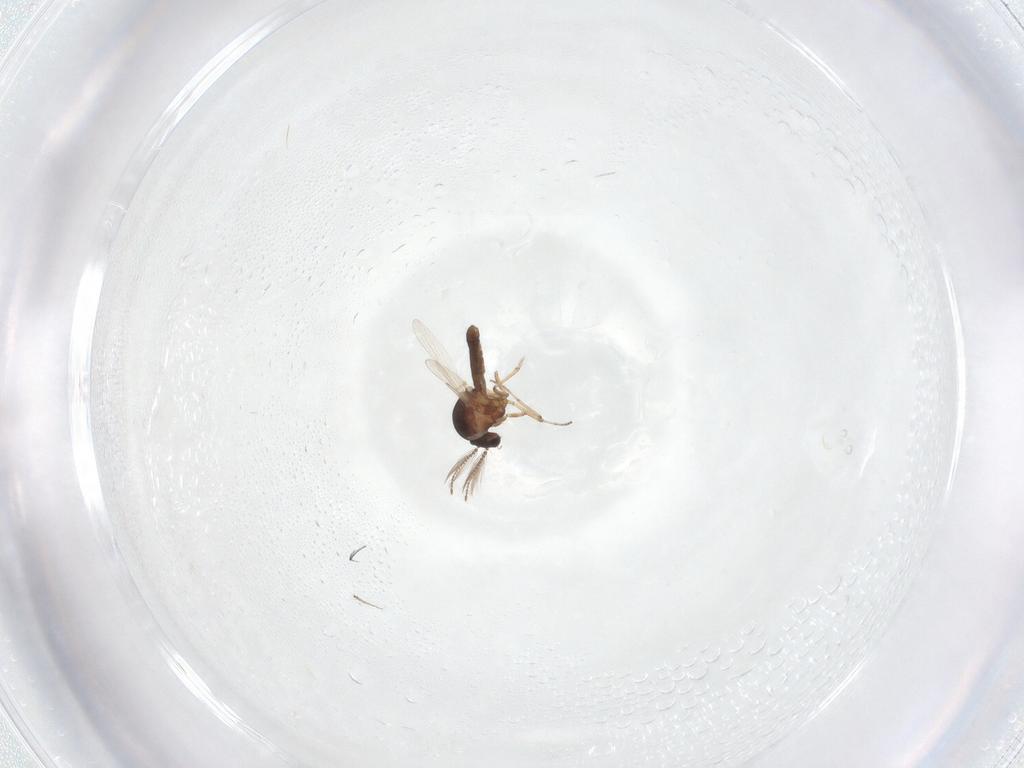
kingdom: Animalia
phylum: Arthropoda
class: Insecta
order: Diptera
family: Ceratopogonidae
